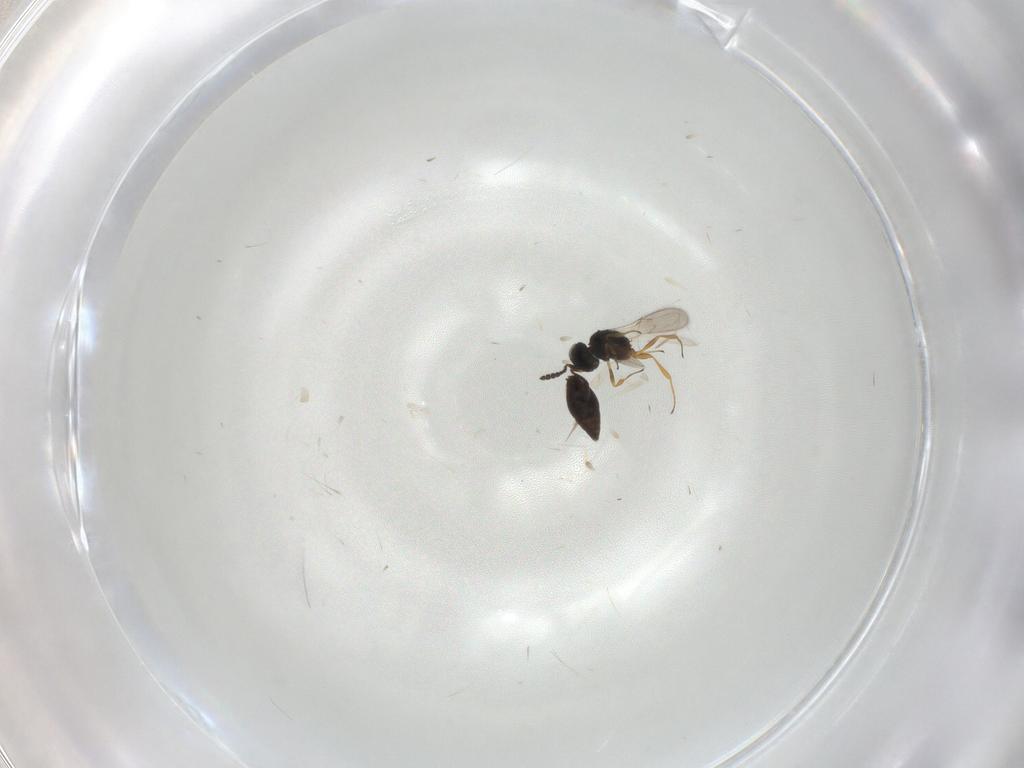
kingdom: Animalia
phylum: Arthropoda
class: Insecta
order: Hymenoptera
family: Scelionidae
